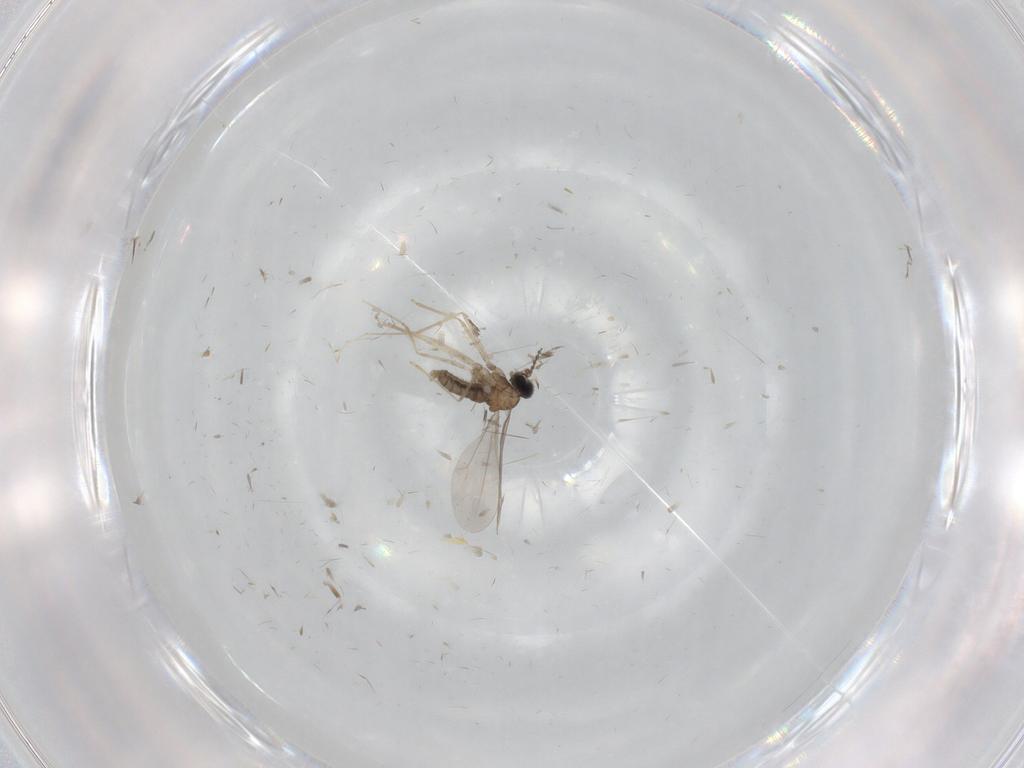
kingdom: Animalia
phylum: Arthropoda
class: Insecta
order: Diptera
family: Cecidomyiidae
